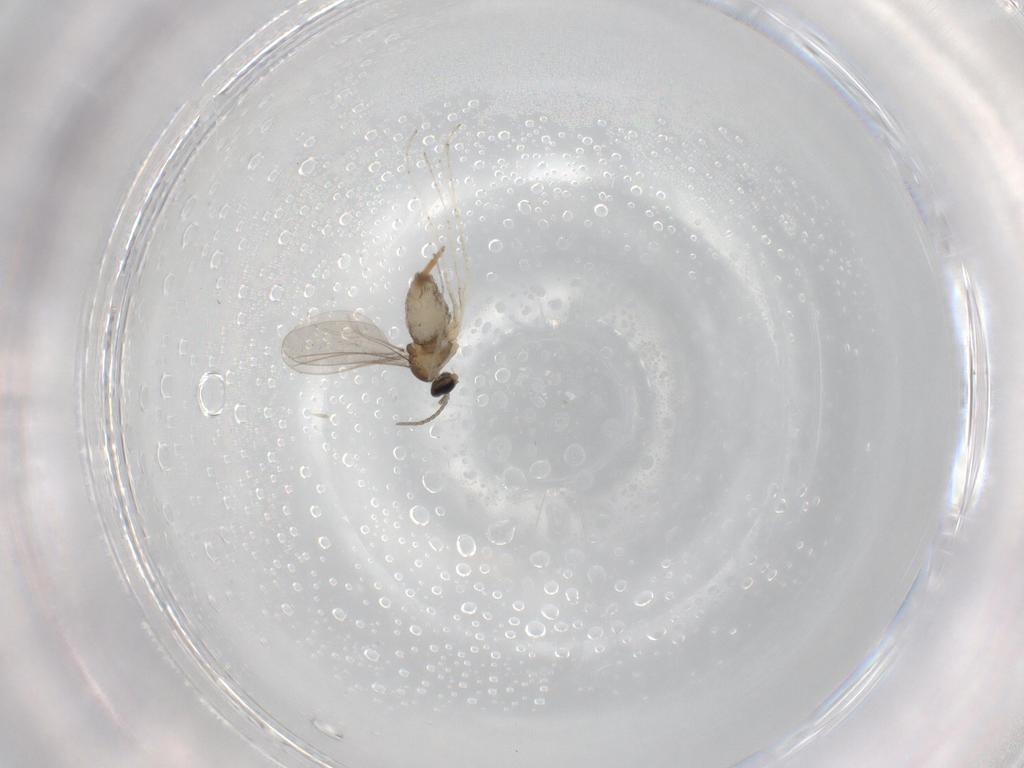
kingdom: Animalia
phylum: Arthropoda
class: Insecta
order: Diptera
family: Cecidomyiidae
